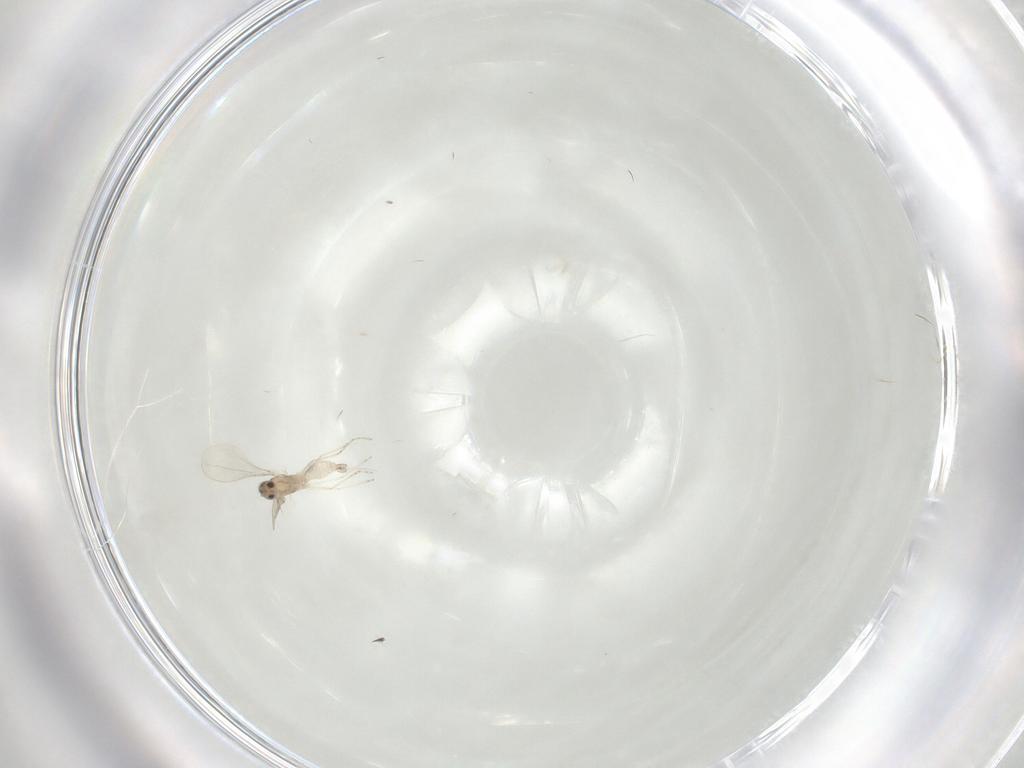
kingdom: Animalia
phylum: Arthropoda
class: Insecta
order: Diptera
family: Cecidomyiidae
